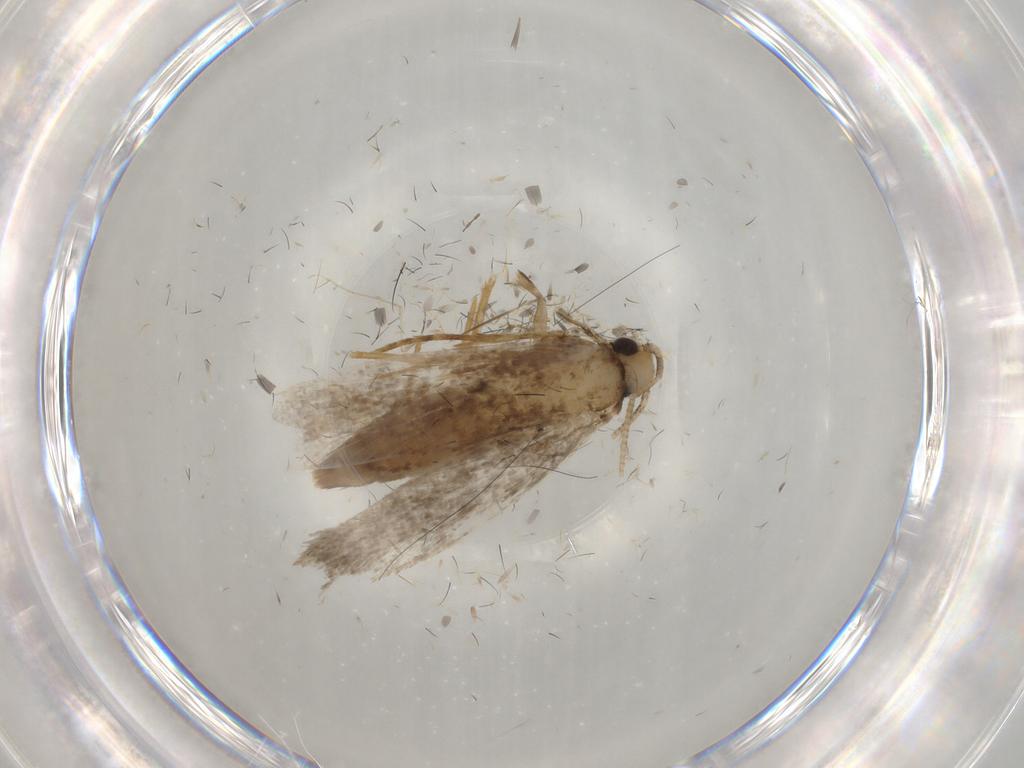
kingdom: Animalia
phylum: Arthropoda
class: Insecta
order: Lepidoptera
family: Tineidae
